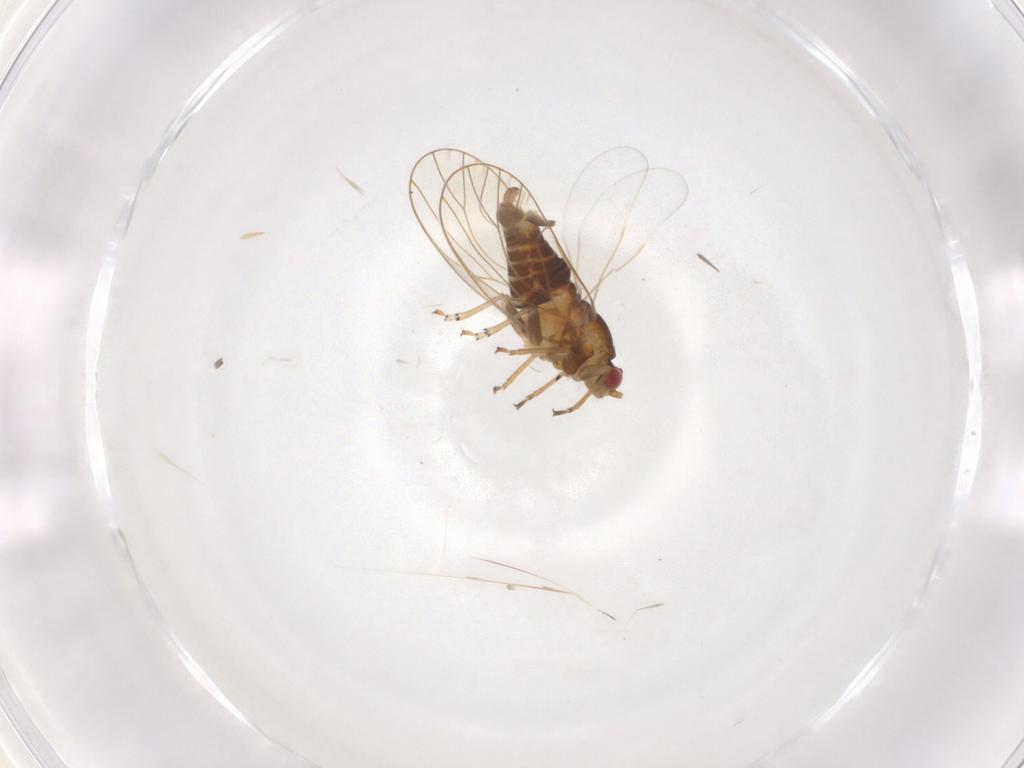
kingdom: Animalia
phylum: Arthropoda
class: Insecta
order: Hemiptera
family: Psyllidae
